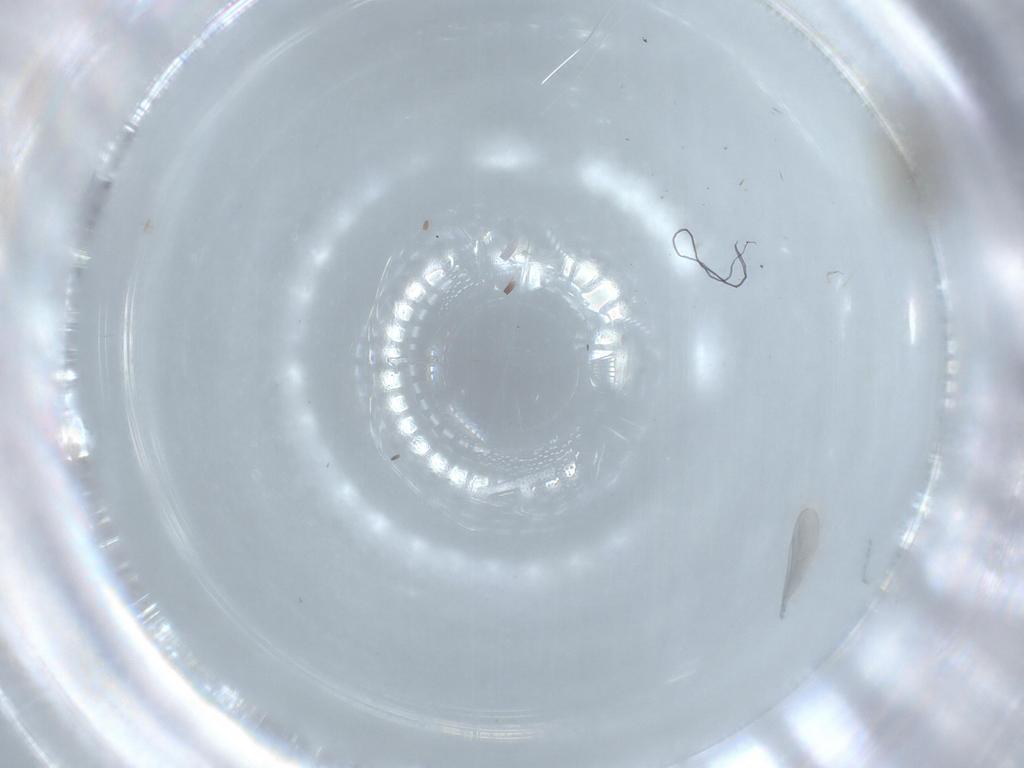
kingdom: Animalia
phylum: Arthropoda
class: Insecta
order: Diptera
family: Cecidomyiidae
